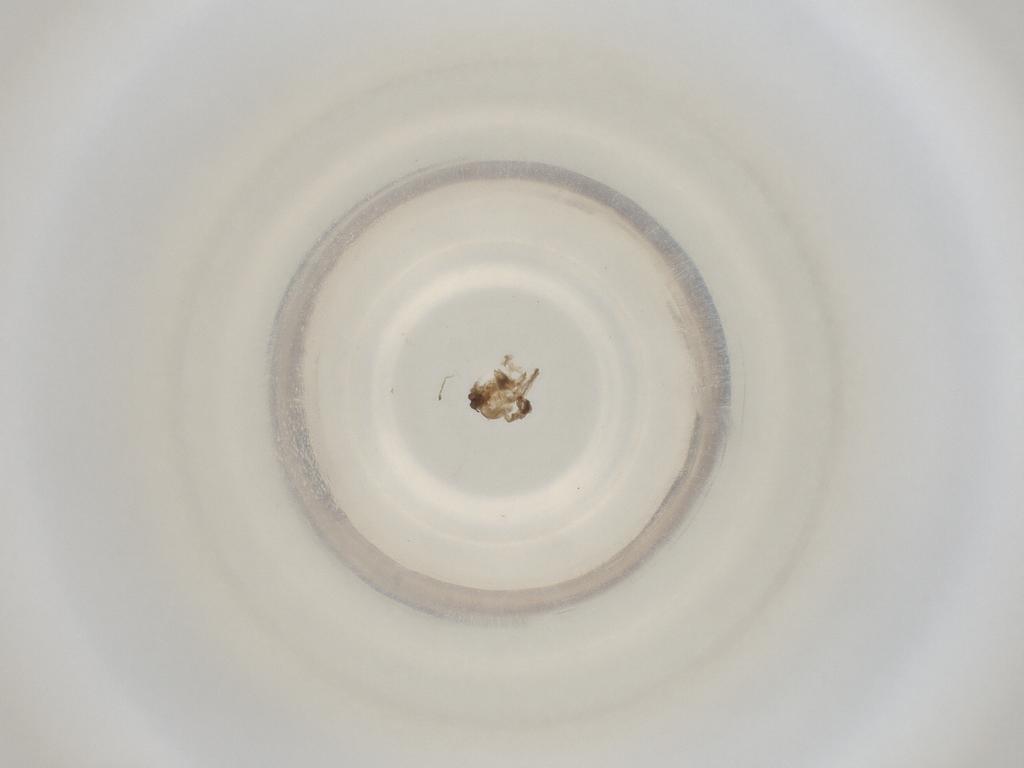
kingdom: Animalia
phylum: Arthropoda
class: Insecta
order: Diptera
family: Cecidomyiidae
